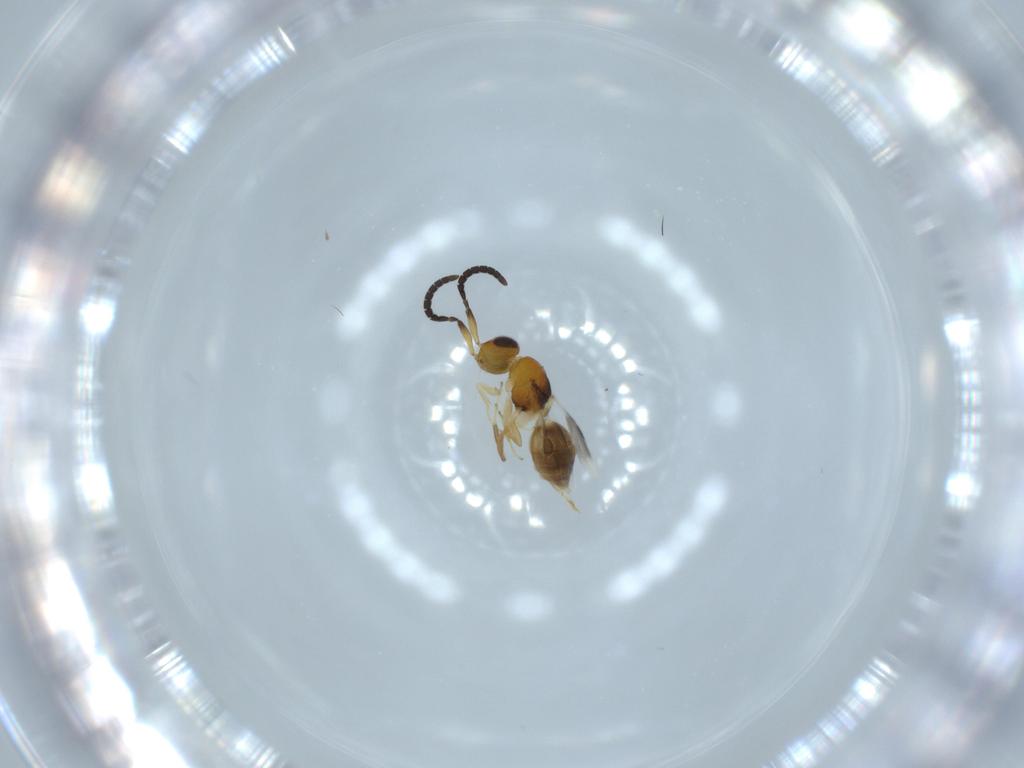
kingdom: Animalia
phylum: Arthropoda
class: Insecta
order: Hymenoptera
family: Megaspilidae
